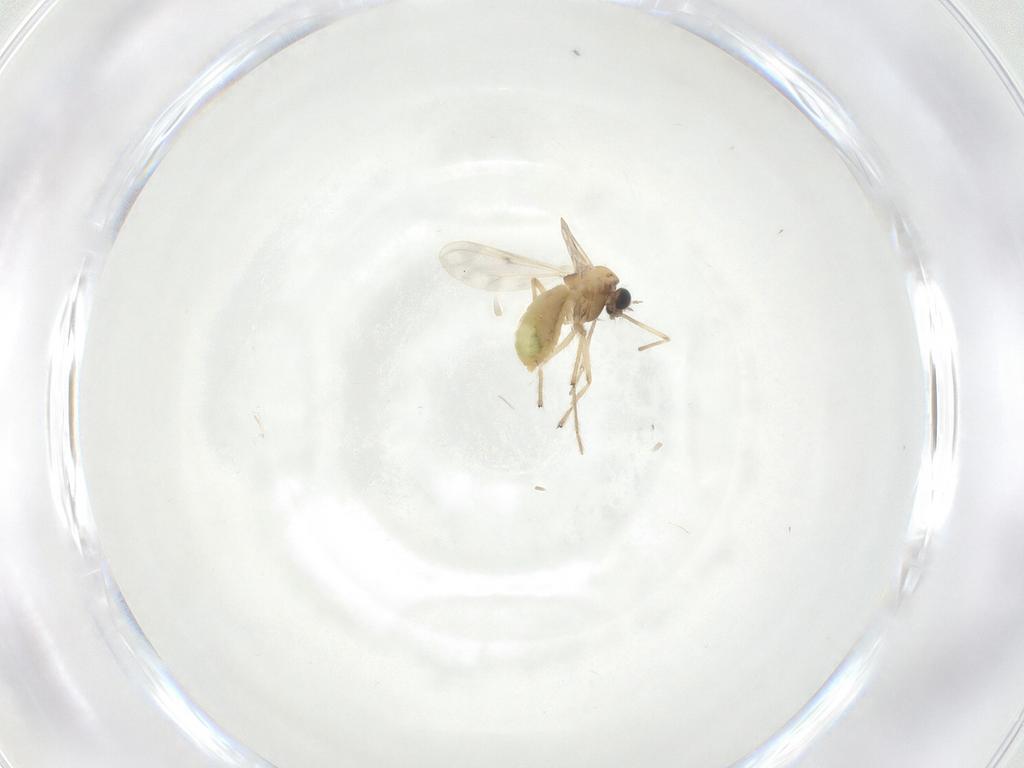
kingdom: Animalia
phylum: Arthropoda
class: Insecta
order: Diptera
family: Chironomidae
